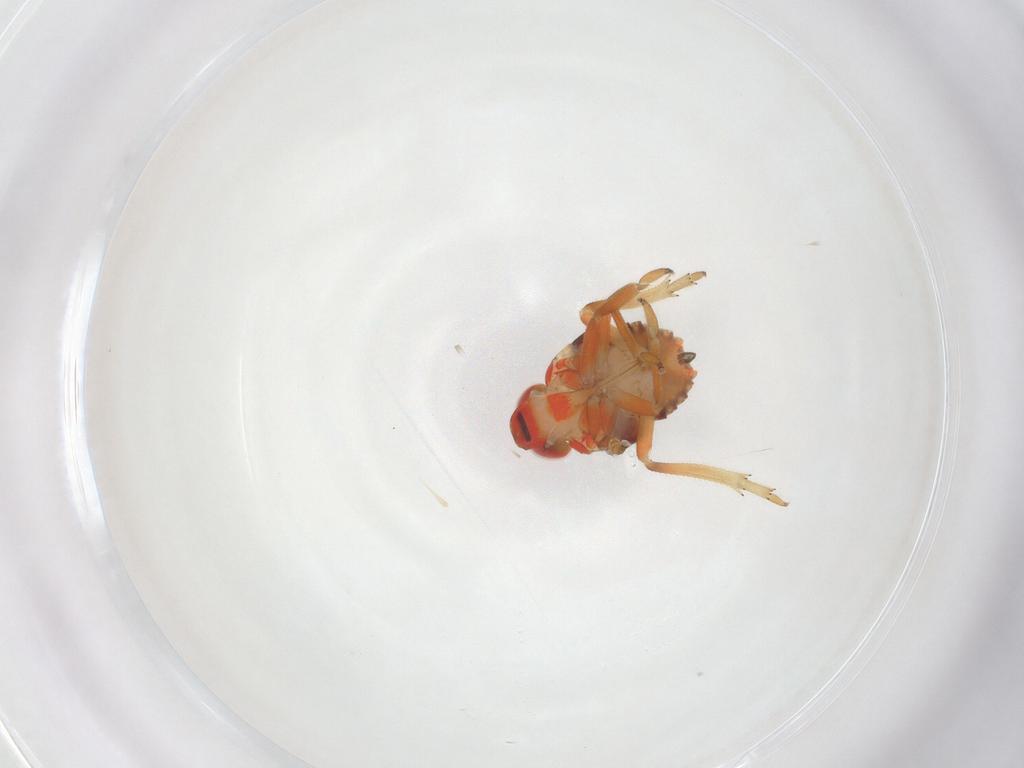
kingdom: Animalia
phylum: Arthropoda
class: Insecta
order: Hemiptera
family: Issidae
